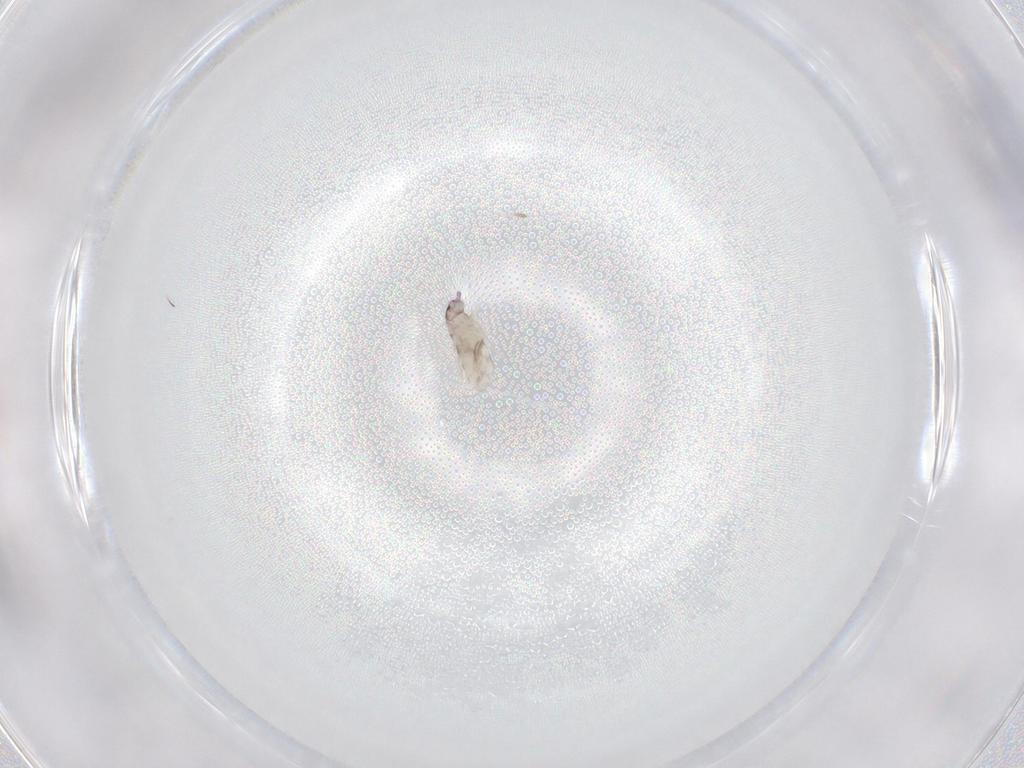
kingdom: Animalia
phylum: Arthropoda
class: Collembola
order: Entomobryomorpha
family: Entomobryidae
